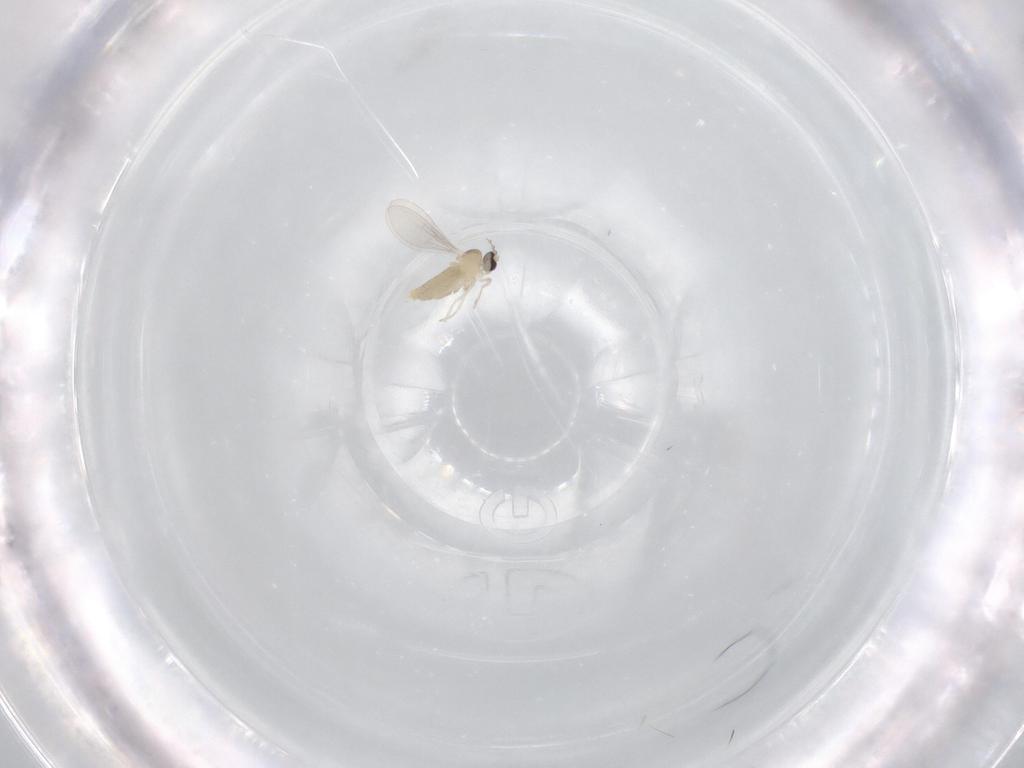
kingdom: Animalia
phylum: Arthropoda
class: Insecta
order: Diptera
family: Cecidomyiidae
